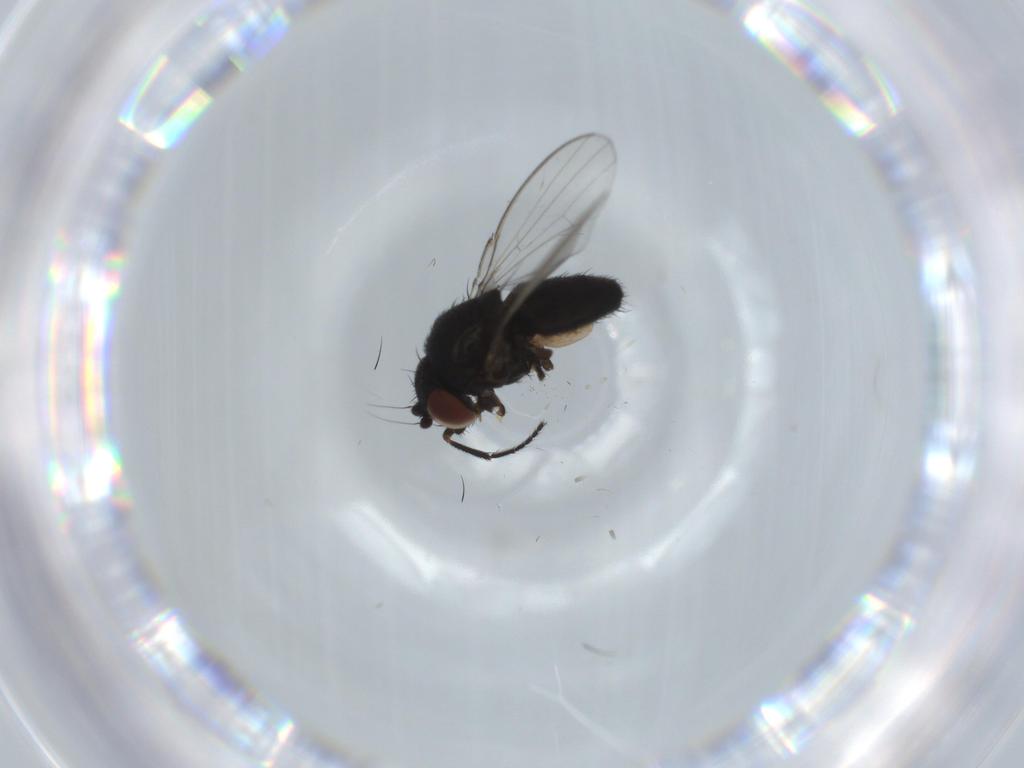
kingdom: Animalia
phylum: Arthropoda
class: Insecta
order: Diptera
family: Milichiidae
